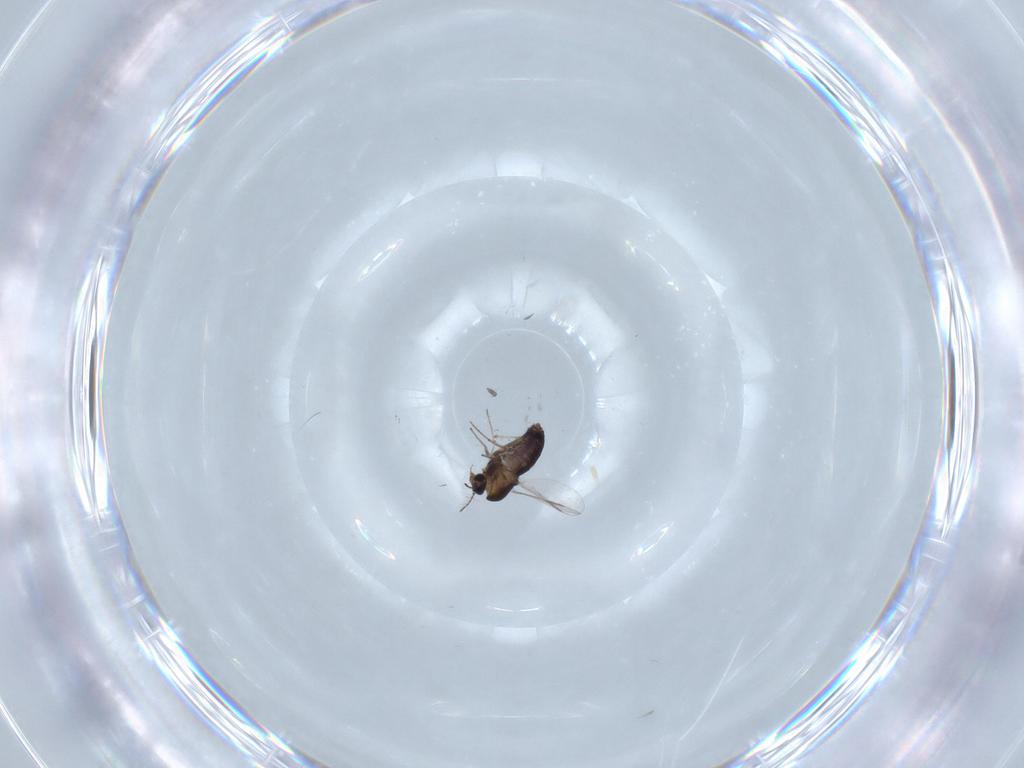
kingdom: Animalia
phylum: Arthropoda
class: Insecta
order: Diptera
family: Chironomidae
